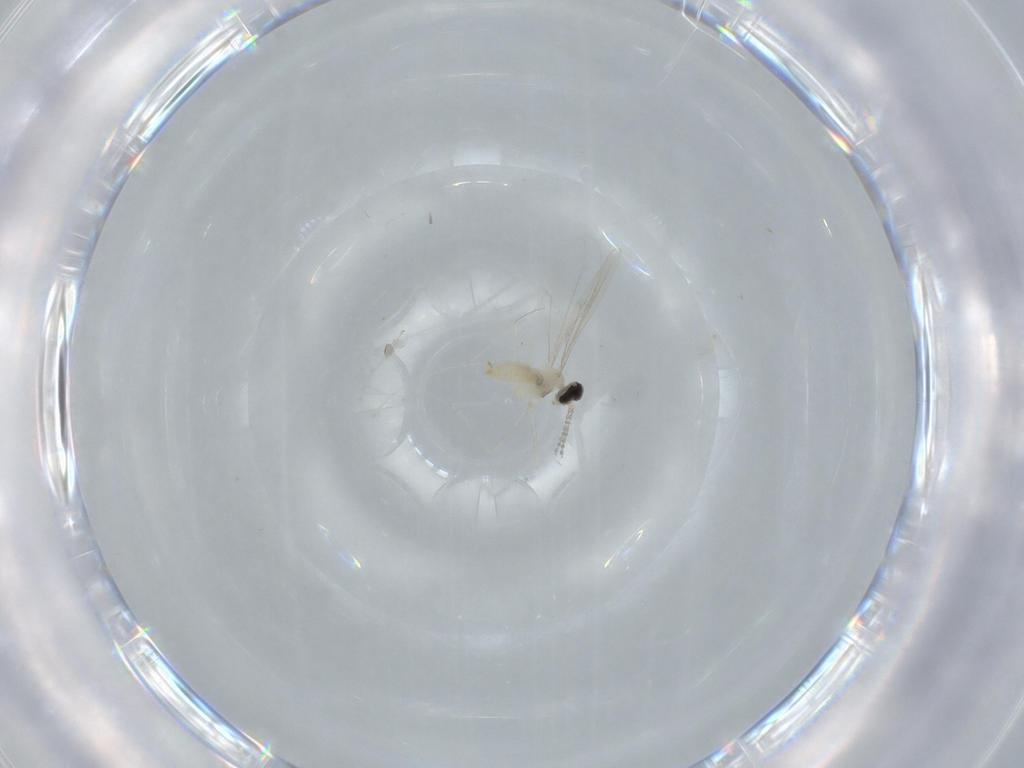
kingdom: Animalia
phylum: Arthropoda
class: Insecta
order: Diptera
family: Cecidomyiidae
